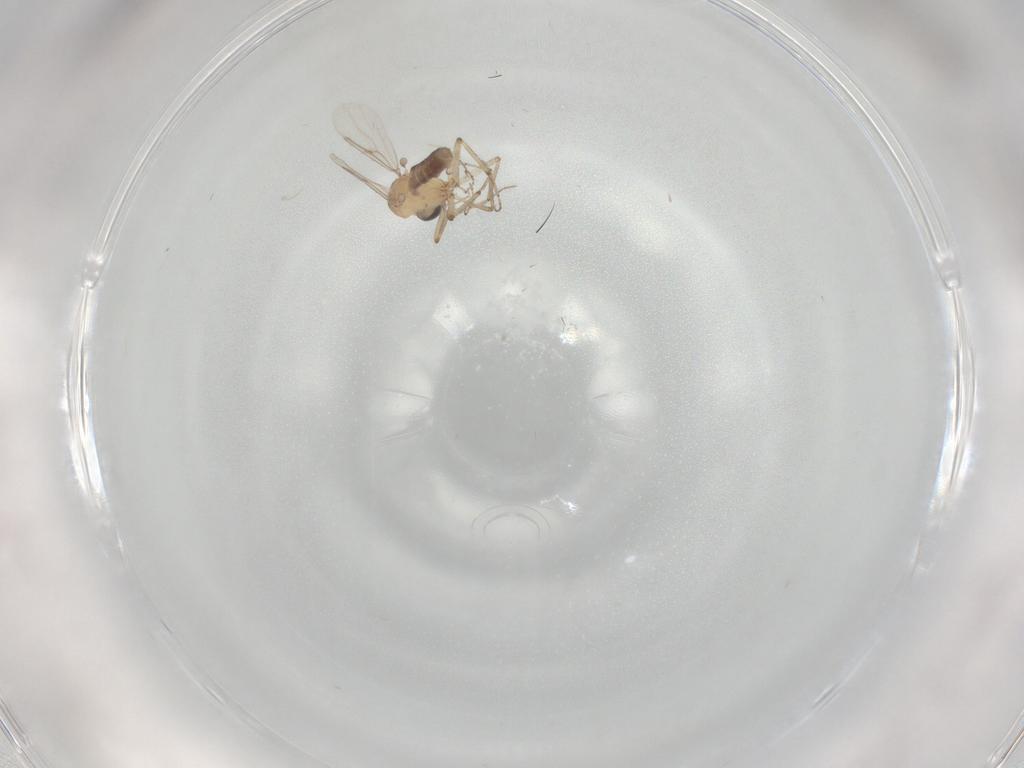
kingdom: Animalia
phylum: Arthropoda
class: Insecta
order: Diptera
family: Ceratopogonidae
